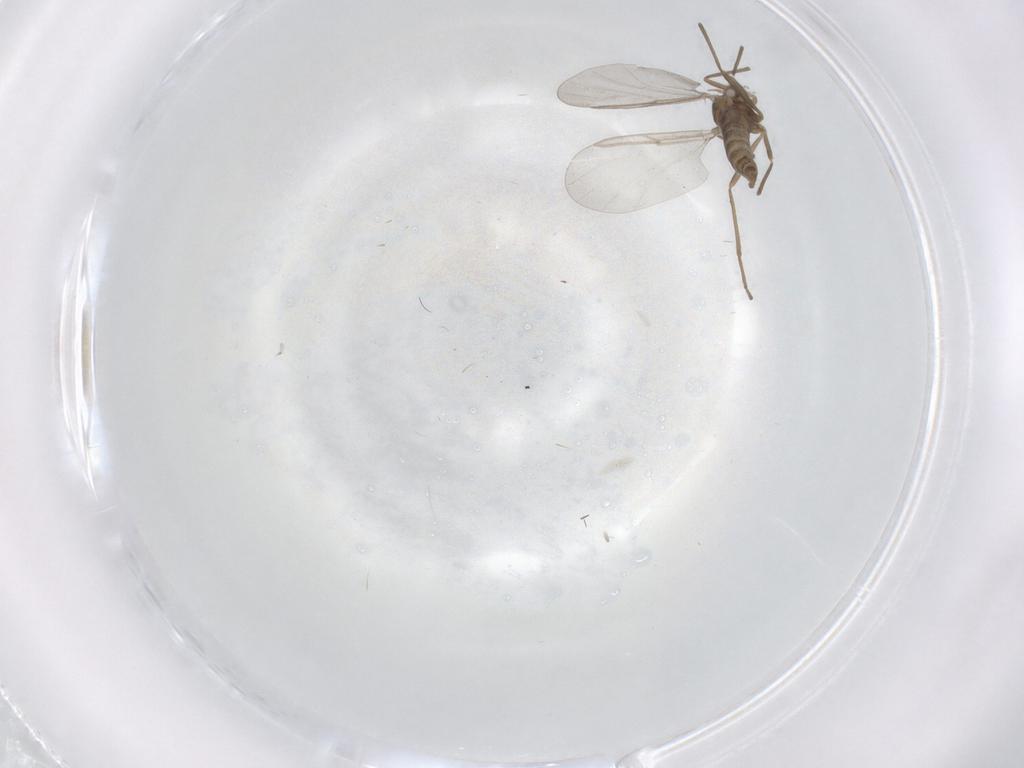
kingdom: Animalia
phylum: Arthropoda
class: Insecta
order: Diptera
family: Cecidomyiidae
